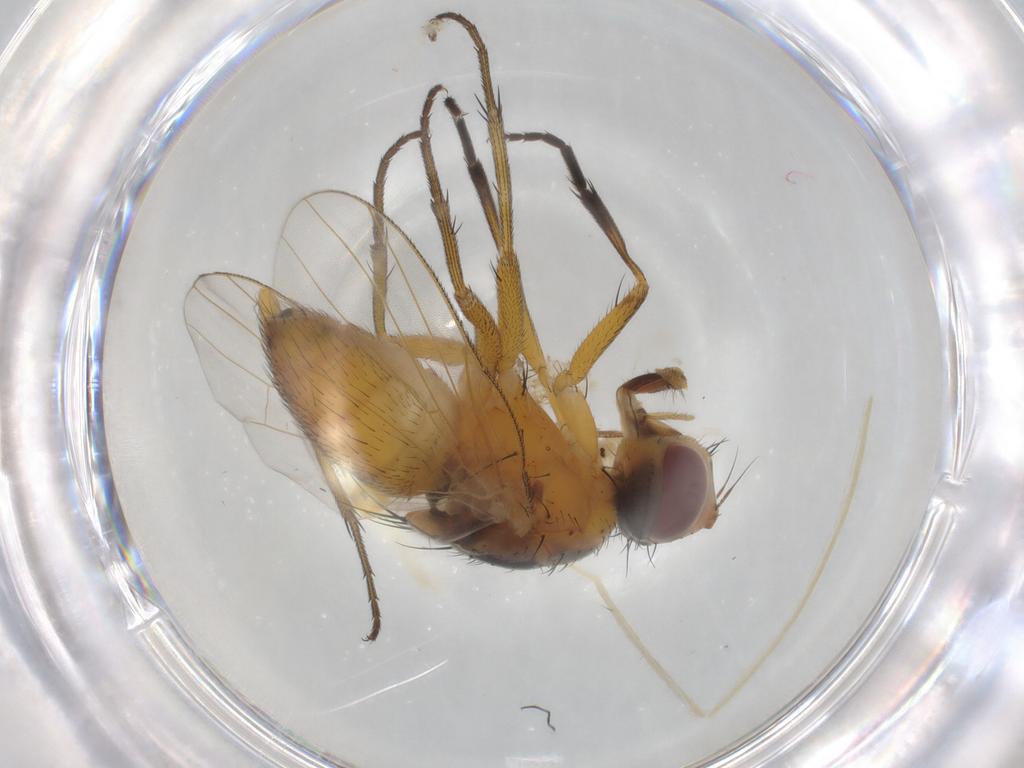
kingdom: Animalia
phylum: Arthropoda
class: Insecta
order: Diptera
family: Muscidae
